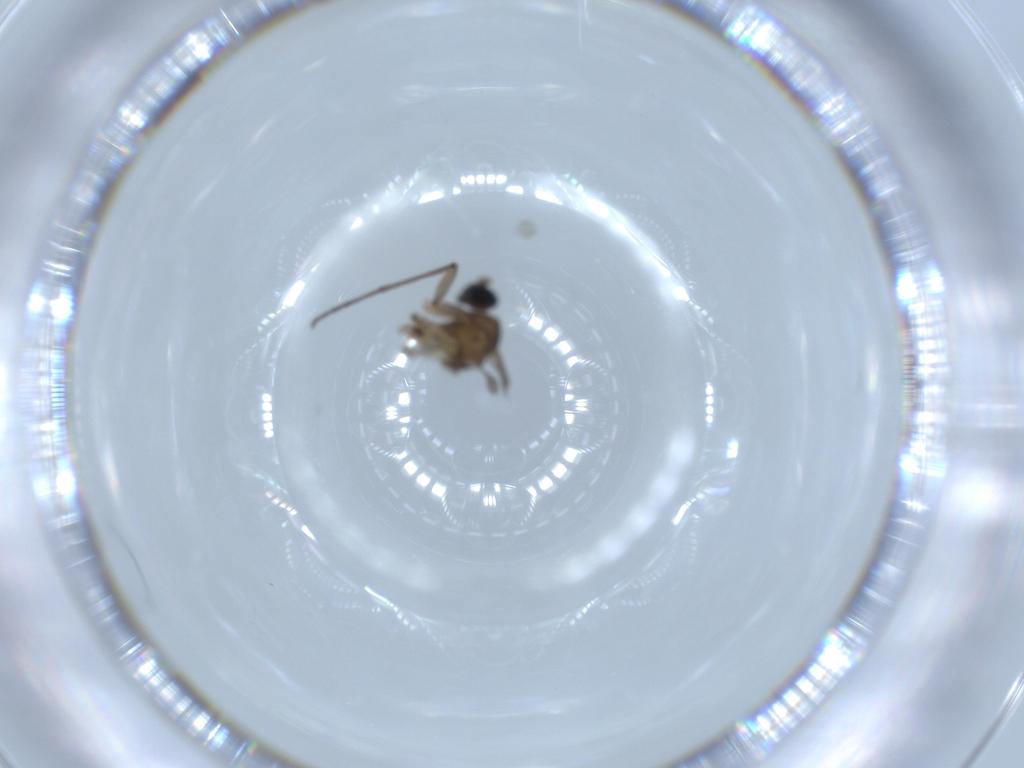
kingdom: Animalia
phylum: Arthropoda
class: Insecta
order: Diptera
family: Sciaridae
